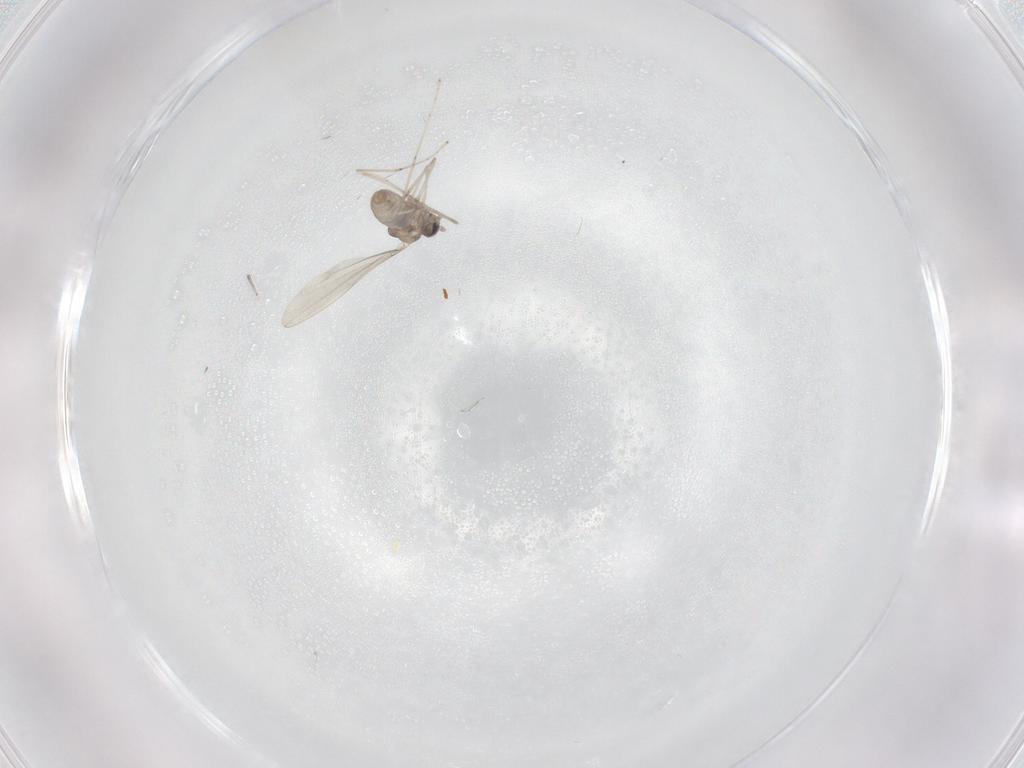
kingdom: Animalia
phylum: Arthropoda
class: Insecta
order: Diptera
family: Cecidomyiidae
